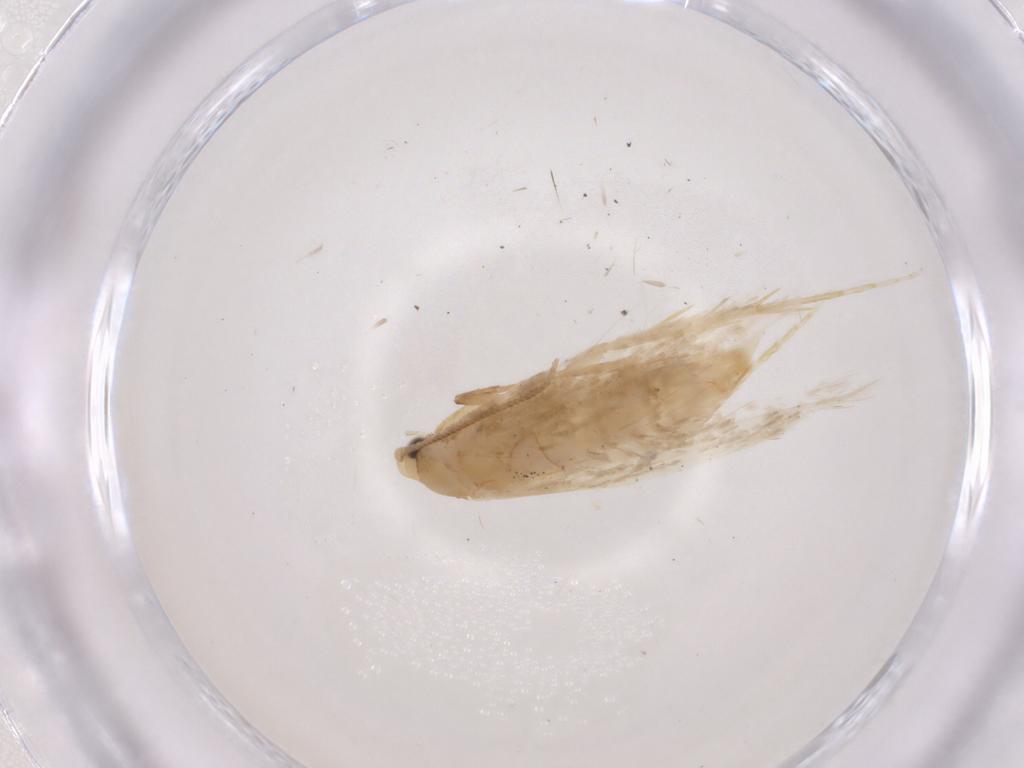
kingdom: Animalia
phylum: Arthropoda
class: Insecta
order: Lepidoptera
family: Tineidae
